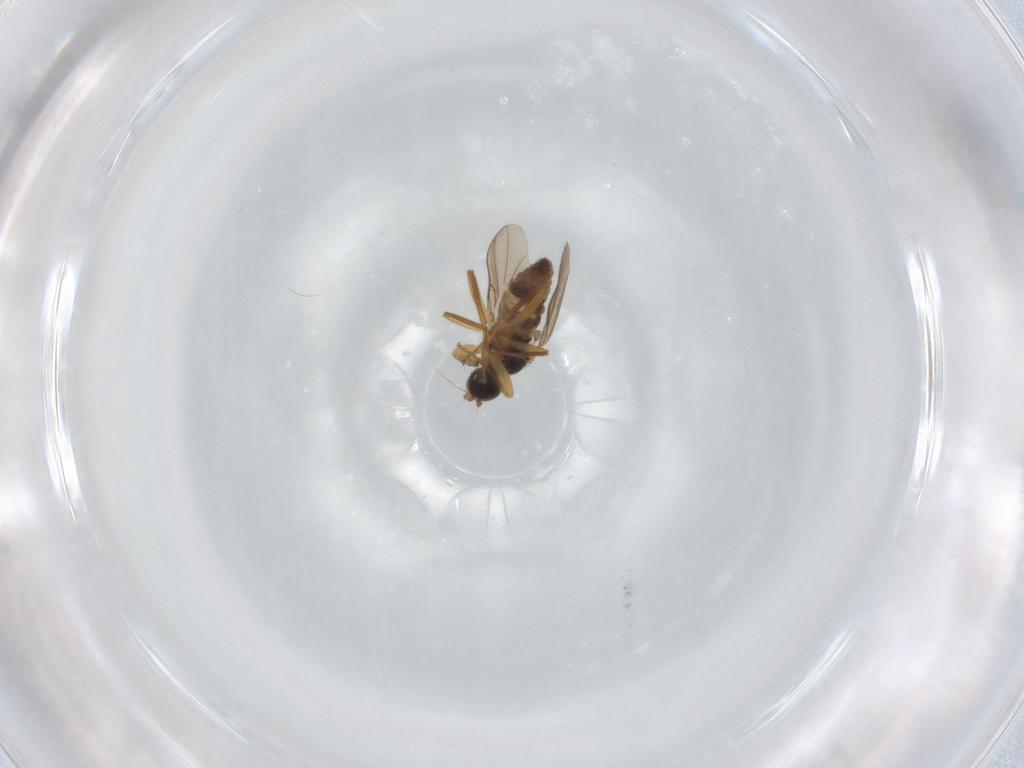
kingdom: Animalia
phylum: Arthropoda
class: Insecta
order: Diptera
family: Hybotidae
